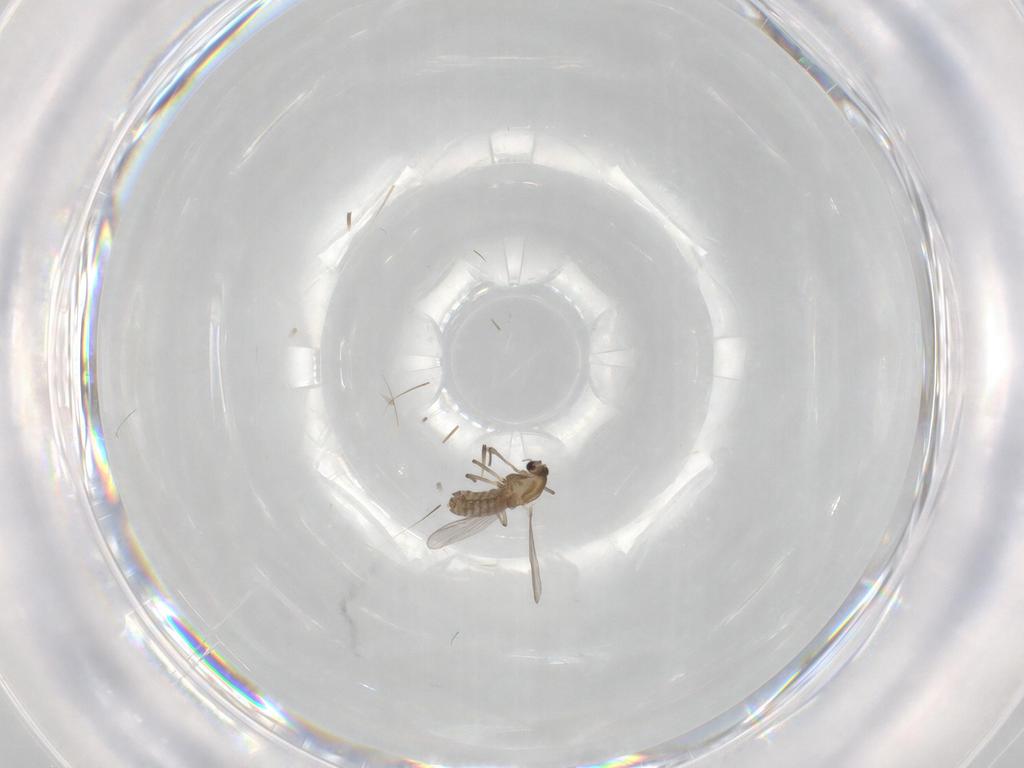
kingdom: Animalia
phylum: Arthropoda
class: Insecta
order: Diptera
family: Chironomidae
